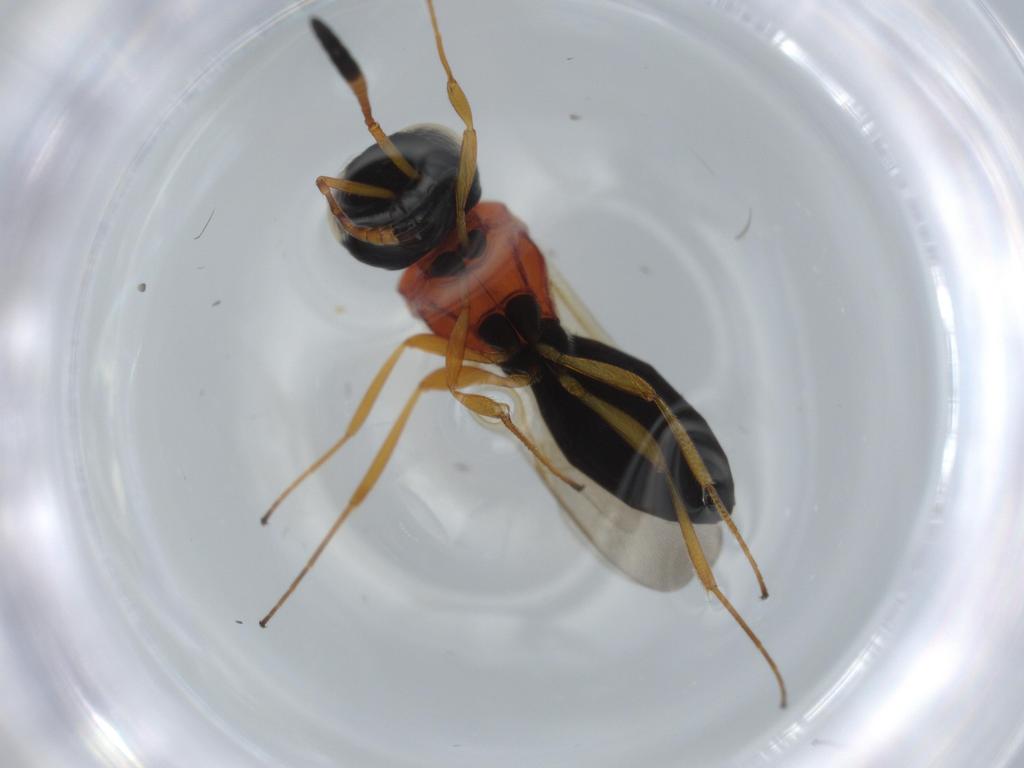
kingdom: Animalia
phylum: Arthropoda
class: Insecta
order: Hymenoptera
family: Scelionidae
